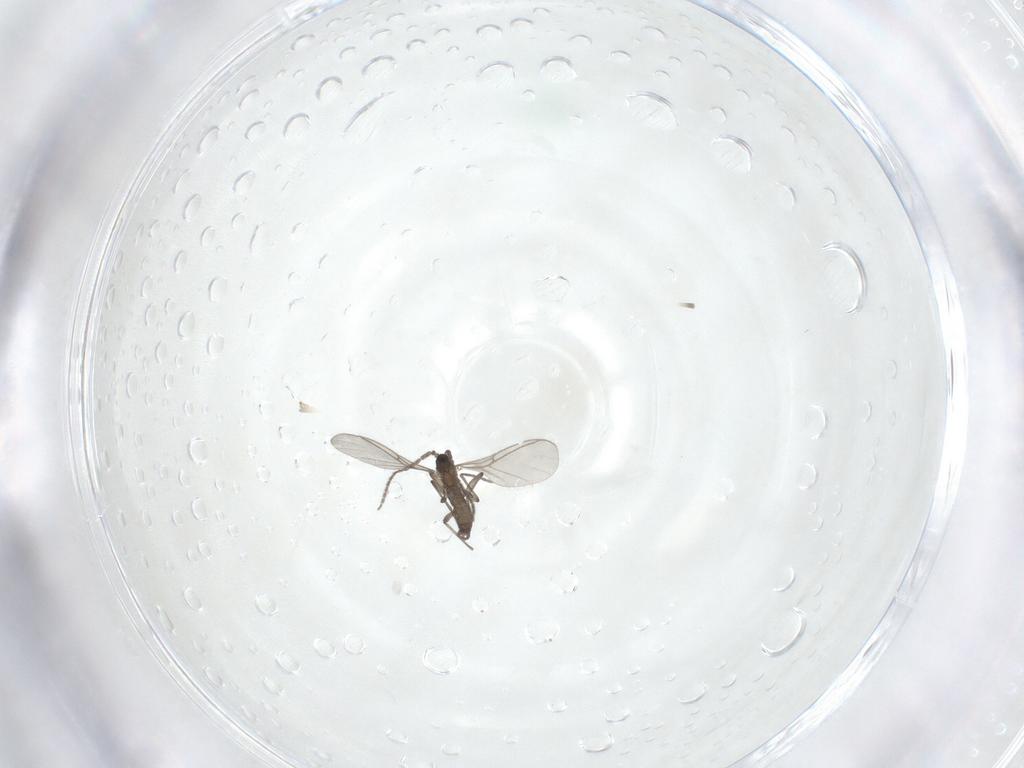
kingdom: Animalia
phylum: Arthropoda
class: Insecta
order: Diptera
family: Sciaridae
